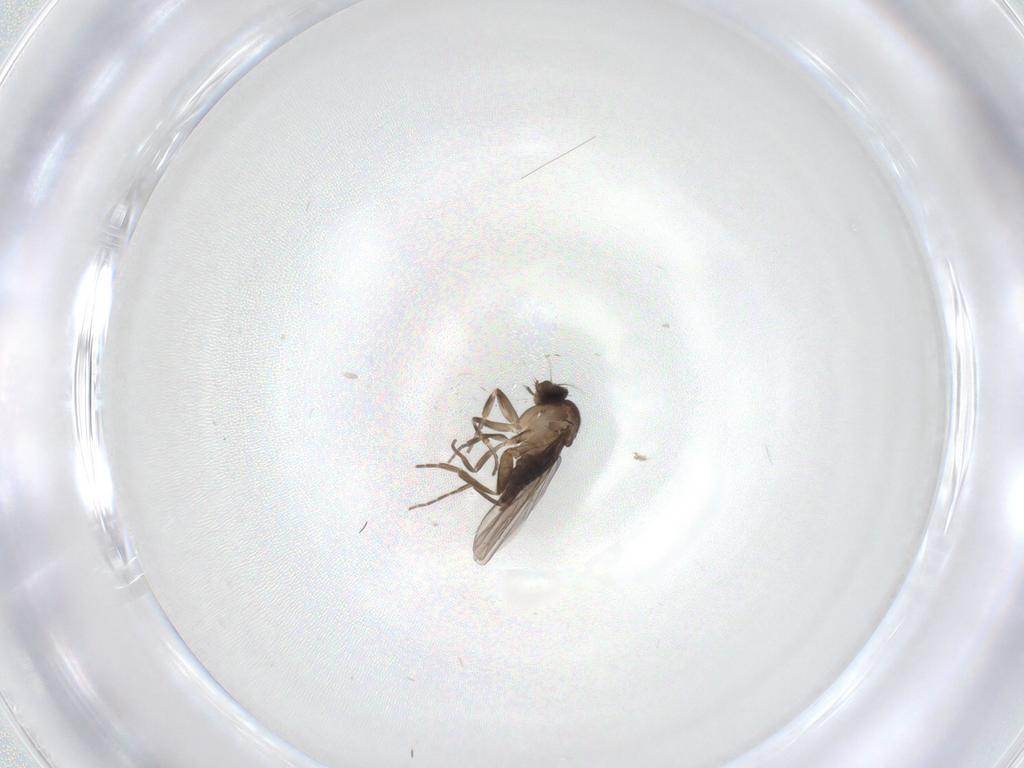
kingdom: Animalia
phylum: Arthropoda
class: Insecta
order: Diptera
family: Phoridae
